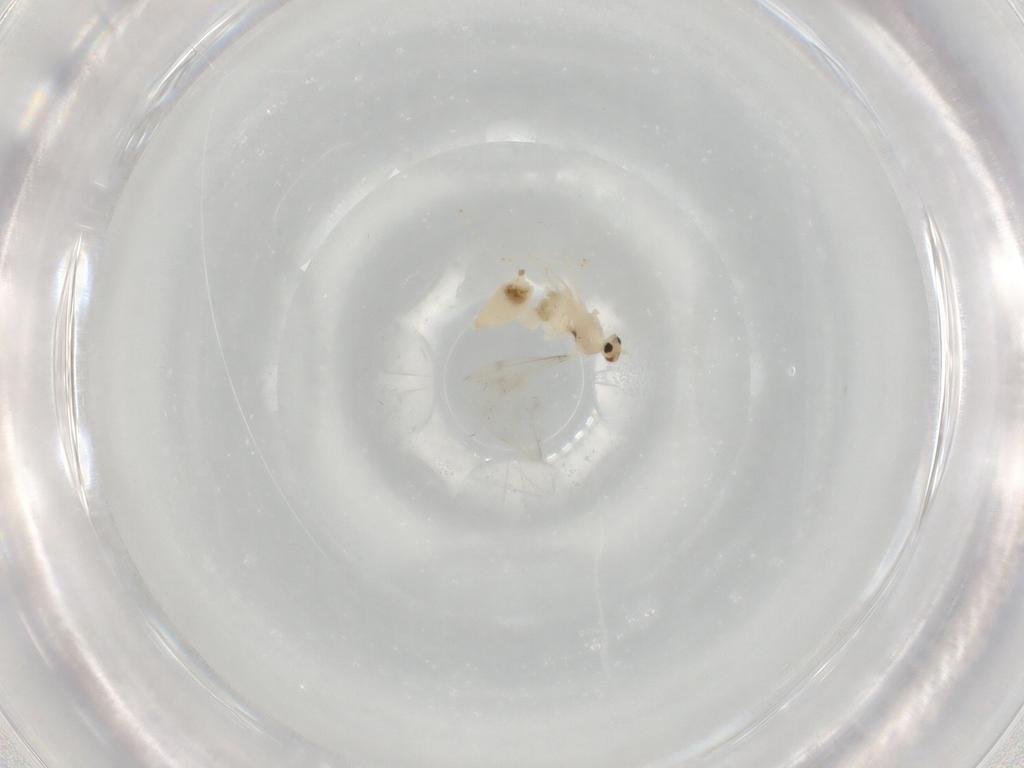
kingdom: Animalia
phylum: Arthropoda
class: Insecta
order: Diptera
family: Cecidomyiidae
